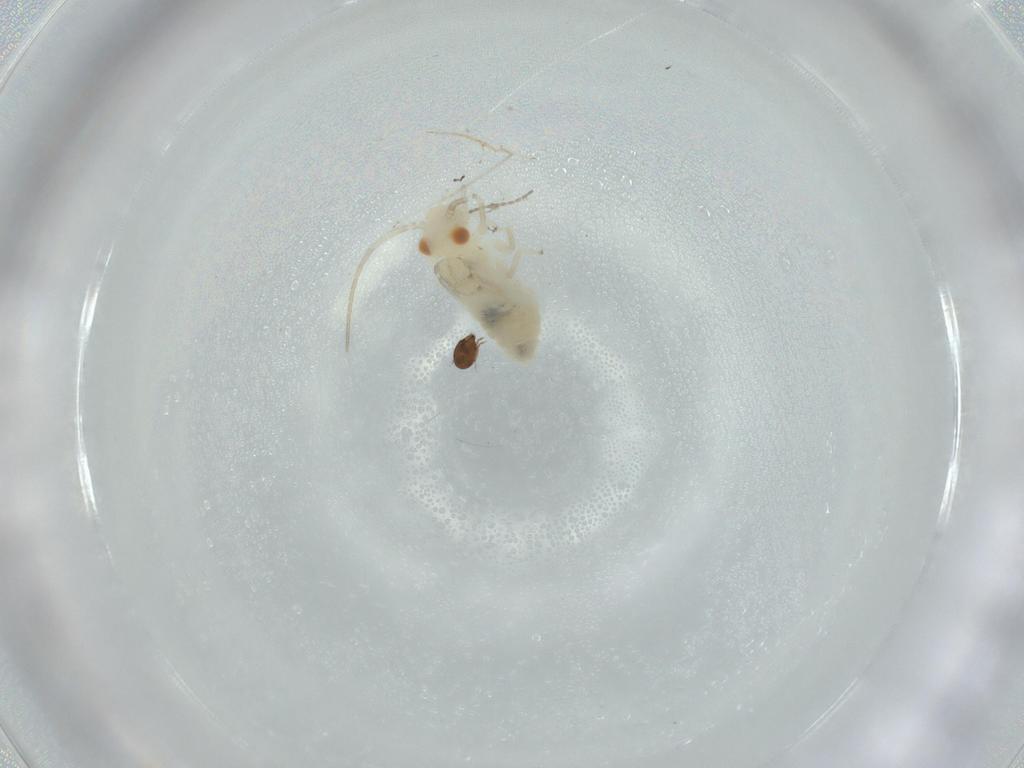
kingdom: Animalia
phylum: Arthropoda
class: Insecta
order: Psocodea
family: Caeciliusidae
